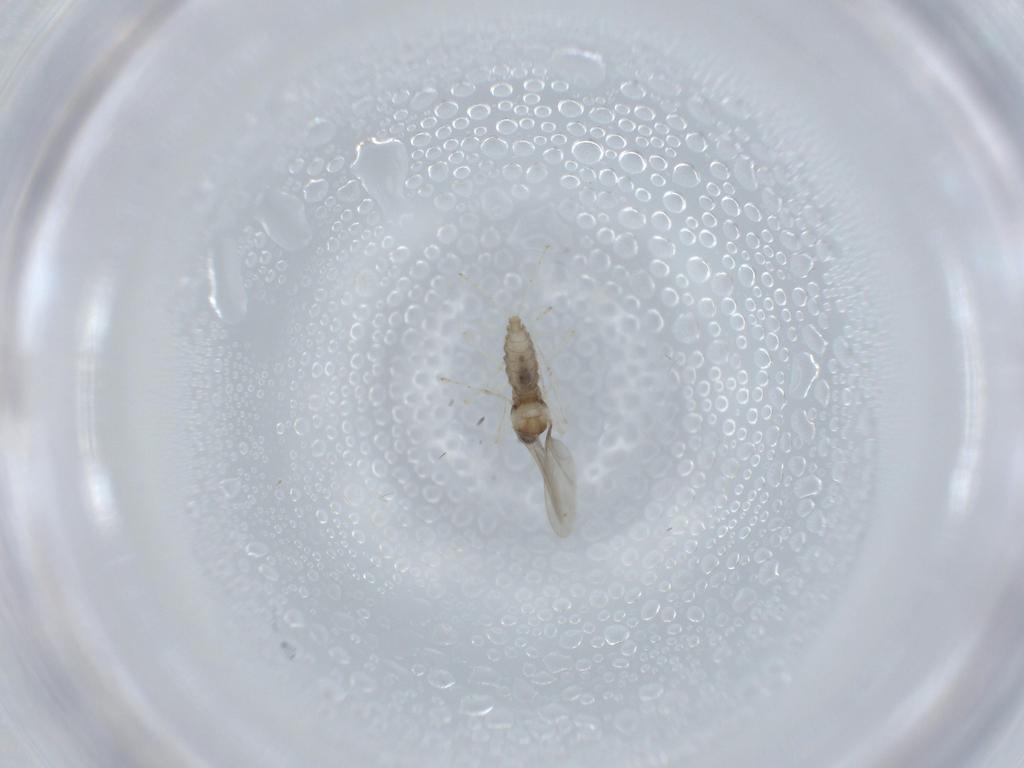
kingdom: Animalia
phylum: Arthropoda
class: Insecta
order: Diptera
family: Cecidomyiidae
